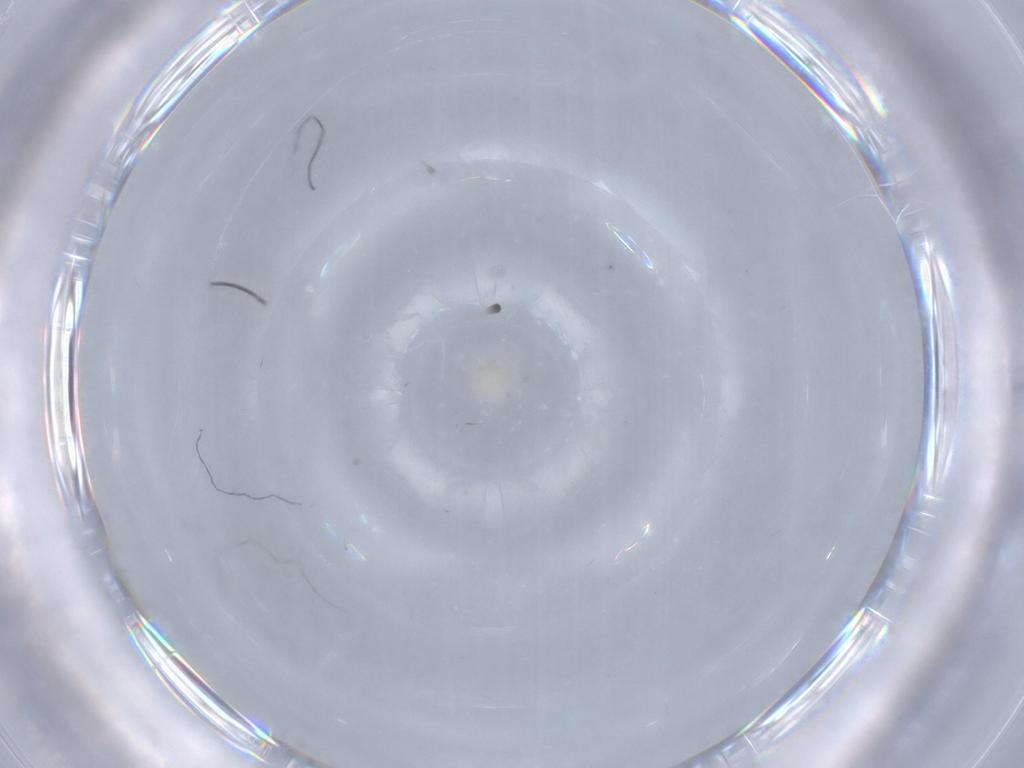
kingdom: Animalia
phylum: Arthropoda
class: Arachnida
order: Trombidiformes
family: Sperchontidae
